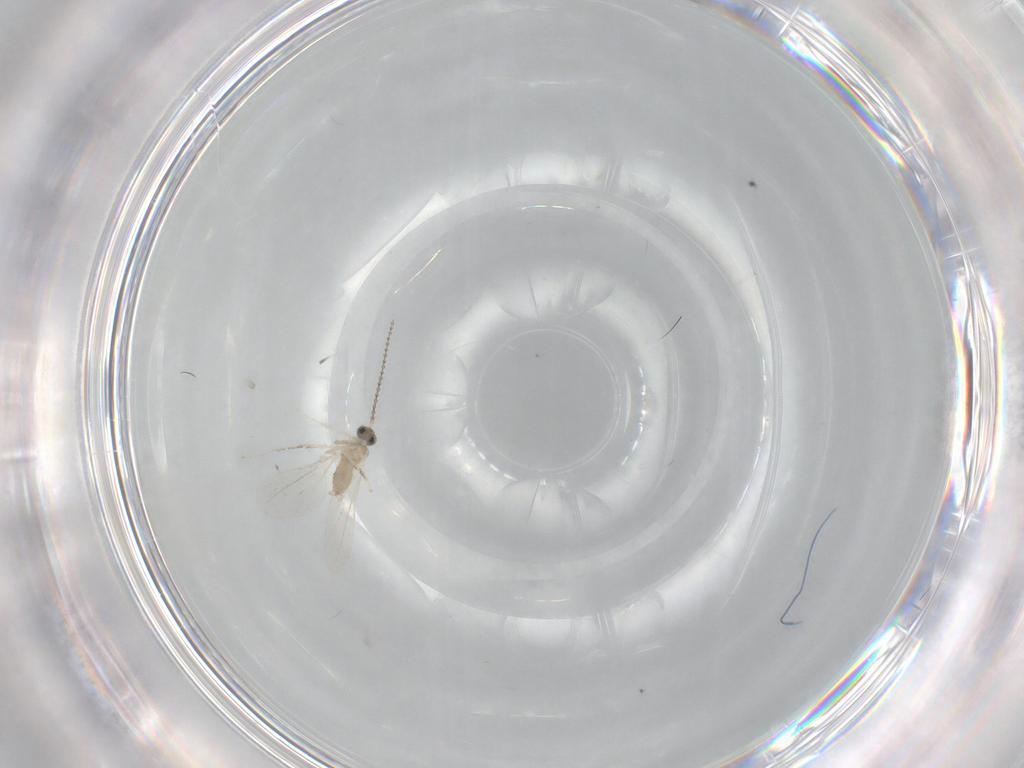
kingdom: Animalia
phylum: Arthropoda
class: Insecta
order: Diptera
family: Cecidomyiidae
